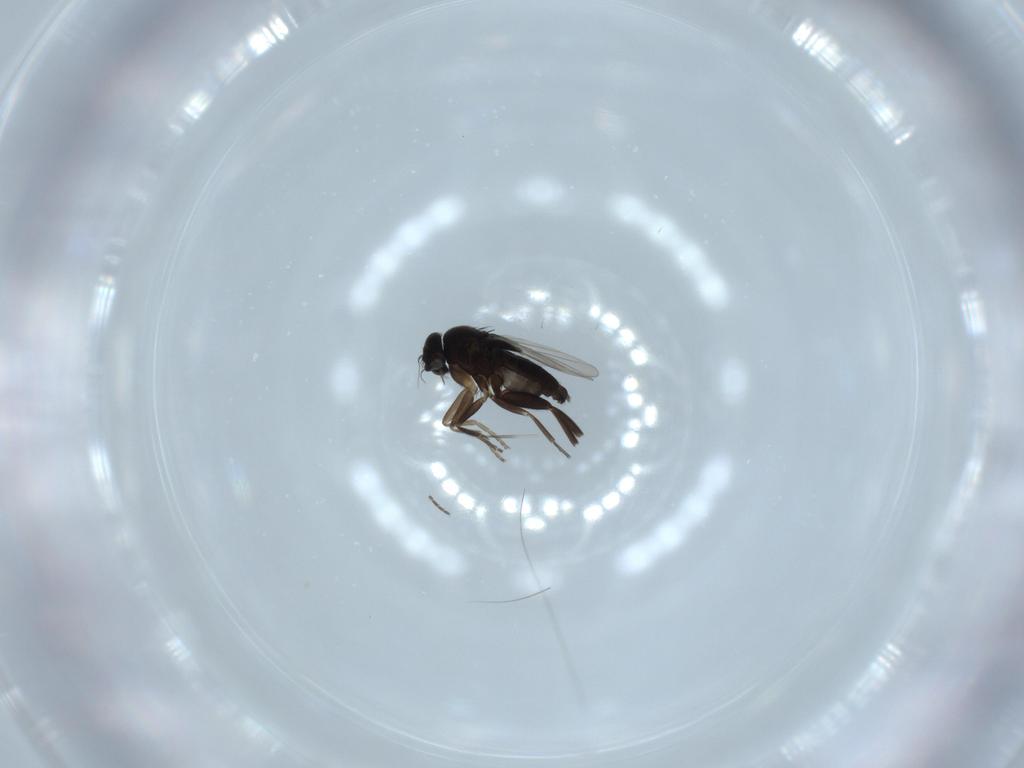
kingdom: Animalia
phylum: Arthropoda
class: Insecta
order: Diptera
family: Phoridae
